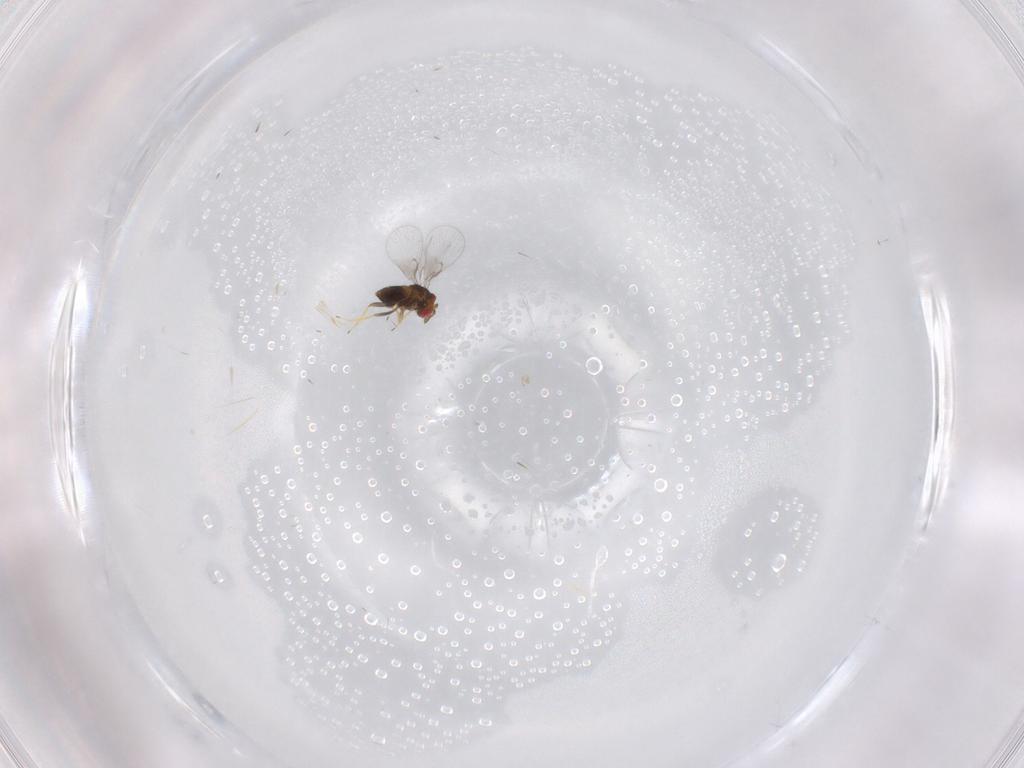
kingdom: Animalia
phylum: Arthropoda
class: Insecta
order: Hymenoptera
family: Trichogrammatidae
